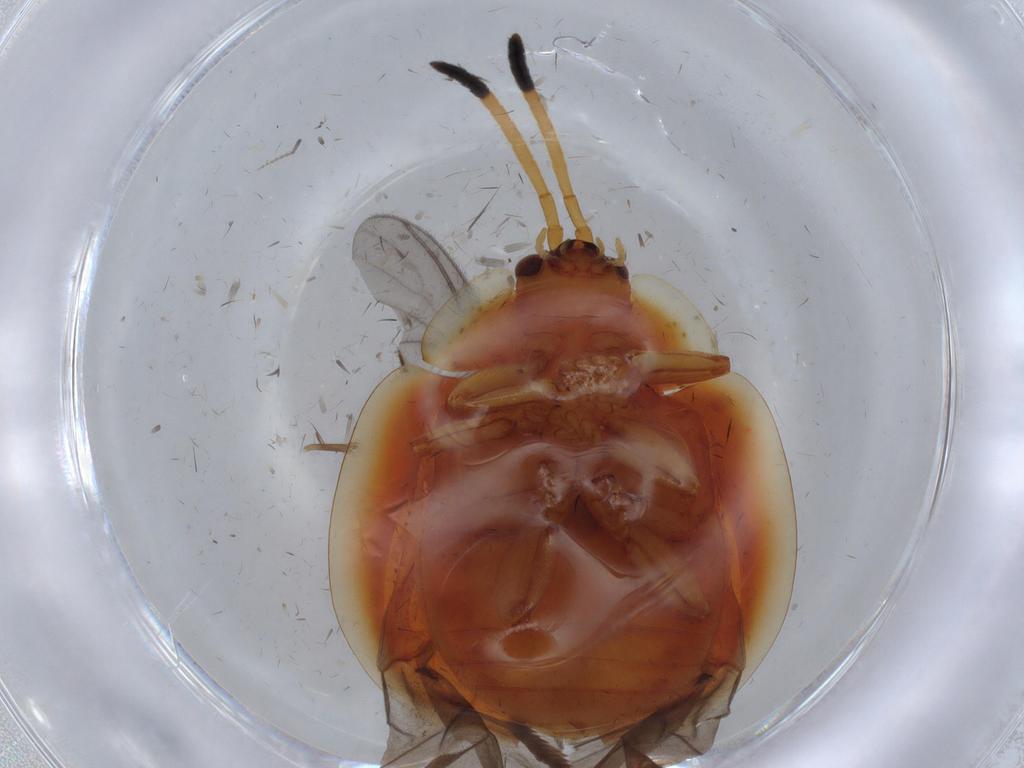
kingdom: Animalia
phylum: Arthropoda
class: Insecta
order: Coleoptera
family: Chrysomelidae
